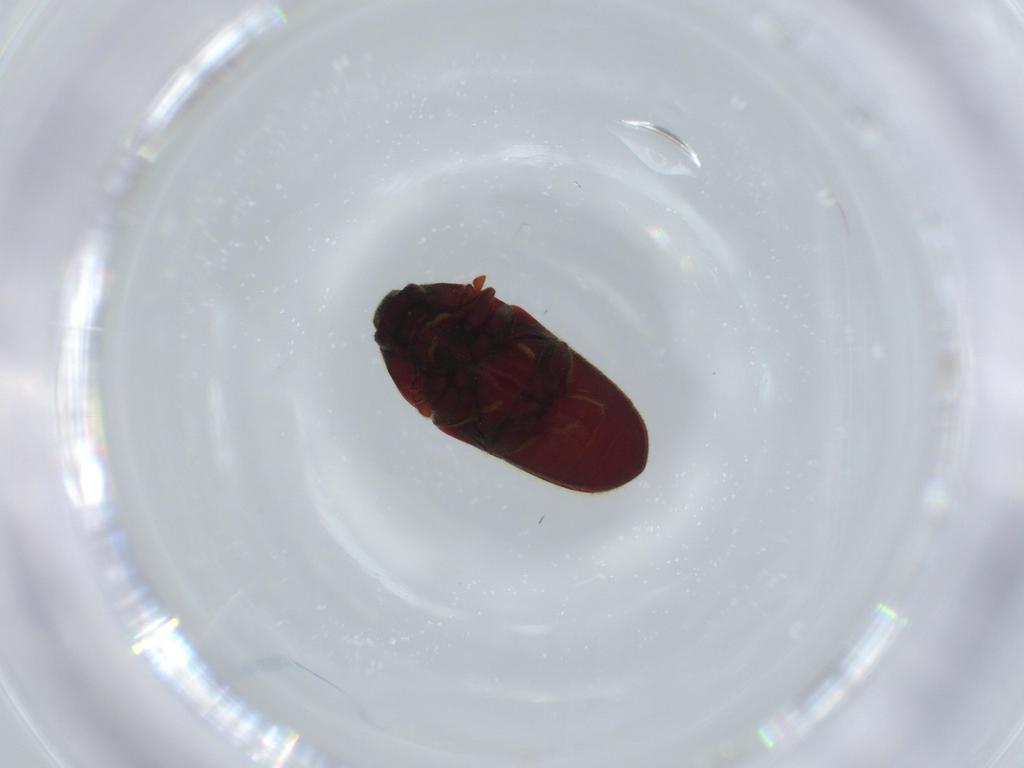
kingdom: Animalia
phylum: Arthropoda
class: Insecta
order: Coleoptera
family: Throscidae
